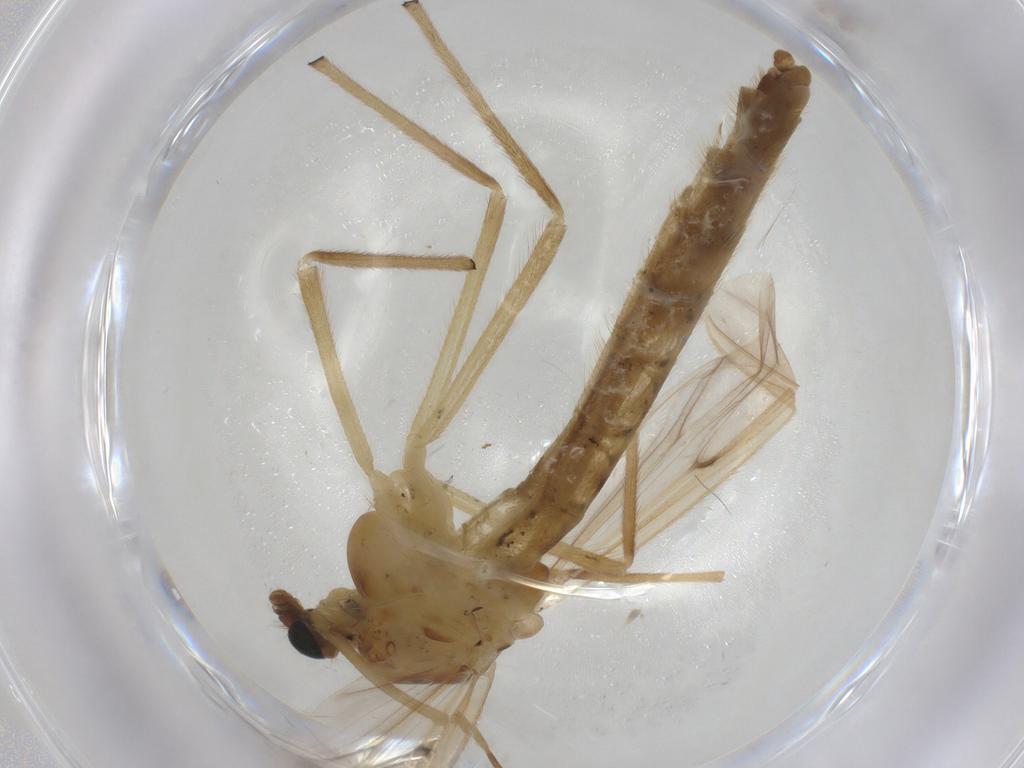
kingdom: Animalia
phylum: Arthropoda
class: Insecta
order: Diptera
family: Chironomidae
